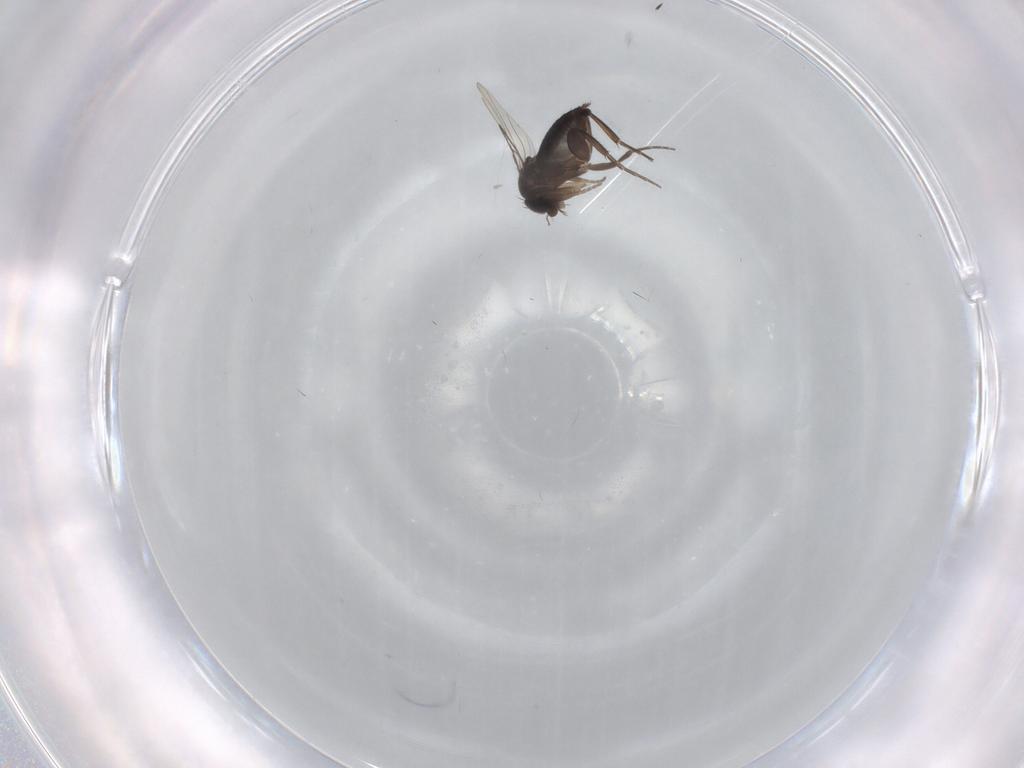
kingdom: Animalia
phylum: Arthropoda
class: Insecta
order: Diptera
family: Phoridae
